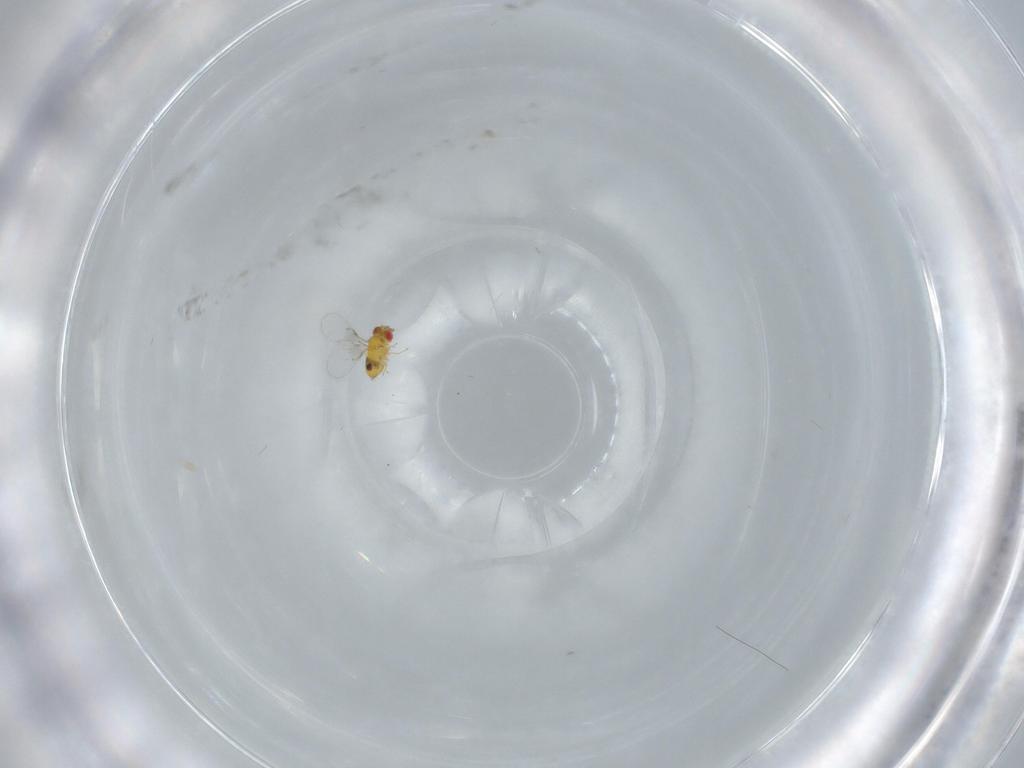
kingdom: Animalia
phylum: Arthropoda
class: Insecta
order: Hymenoptera
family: Trichogrammatidae
